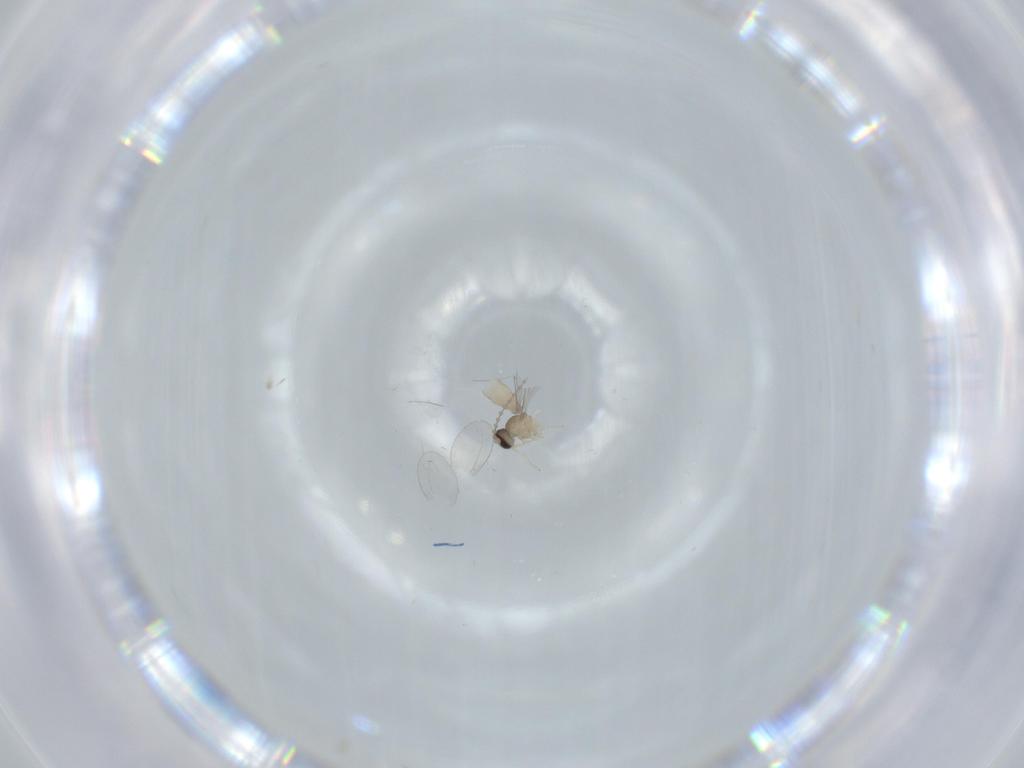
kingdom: Animalia
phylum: Arthropoda
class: Insecta
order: Diptera
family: Cecidomyiidae
